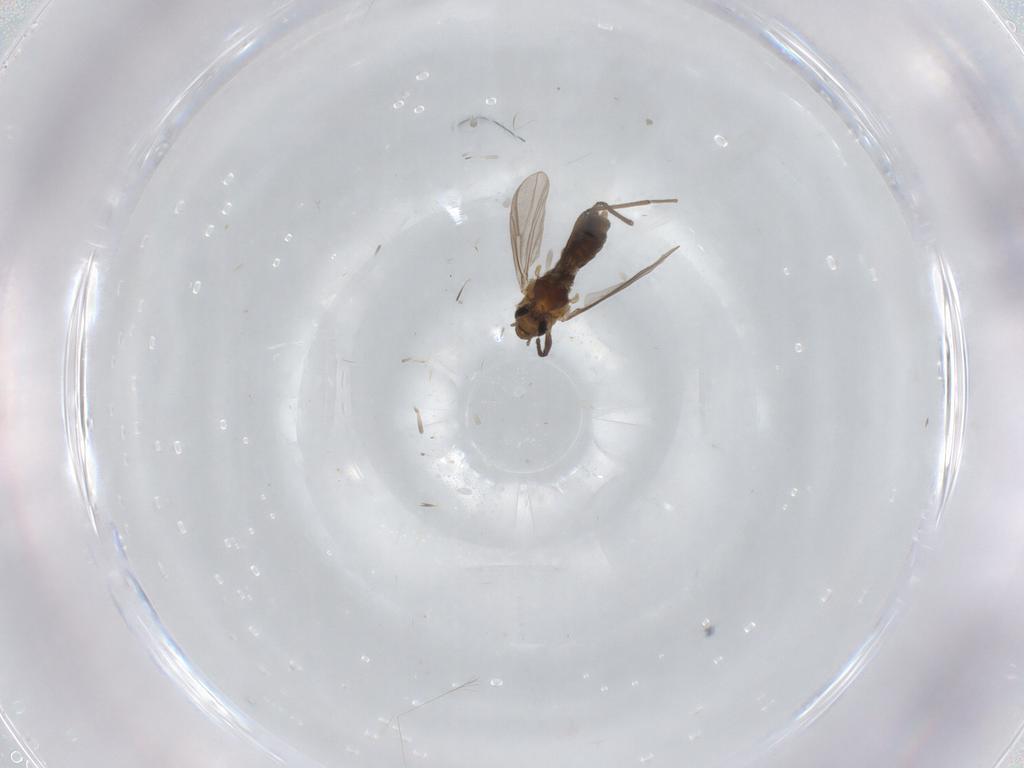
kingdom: Animalia
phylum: Arthropoda
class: Insecta
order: Diptera
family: Chironomidae
